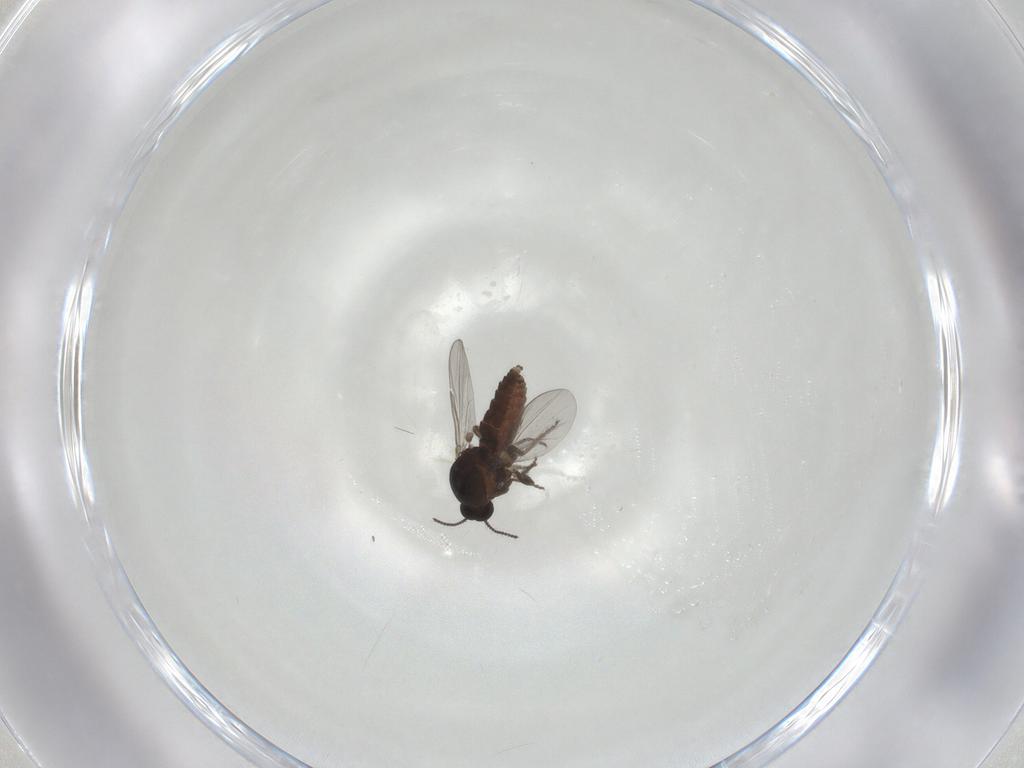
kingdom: Animalia
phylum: Arthropoda
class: Insecta
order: Diptera
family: Ceratopogonidae
